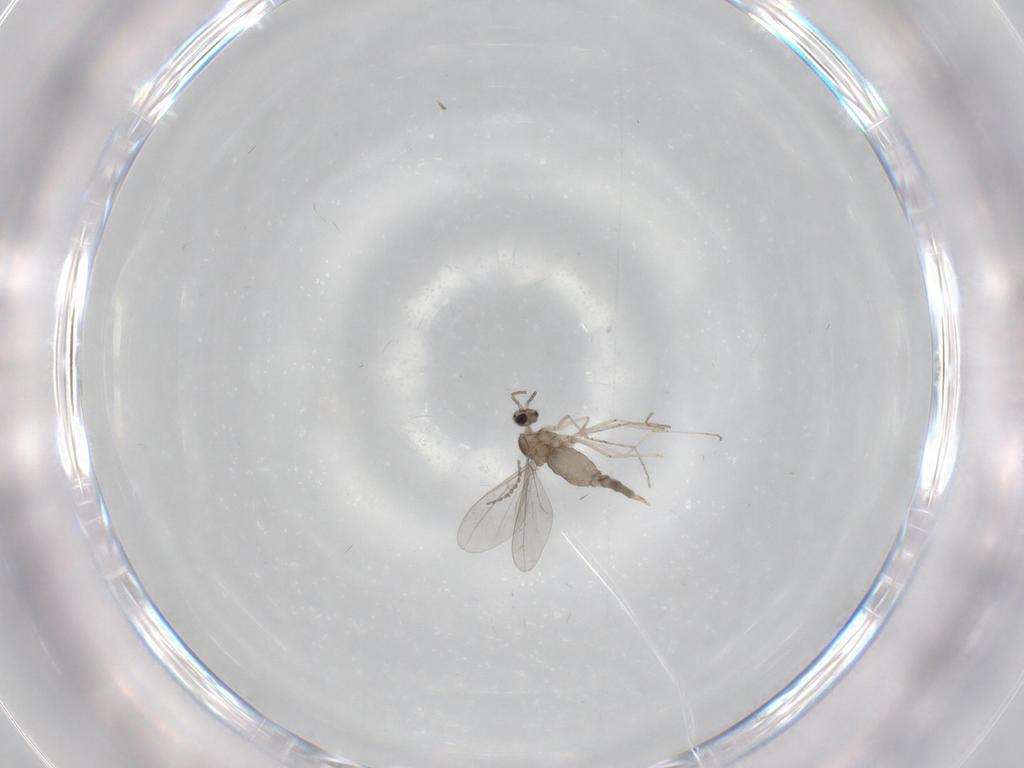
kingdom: Animalia
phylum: Arthropoda
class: Insecta
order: Diptera
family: Cecidomyiidae
